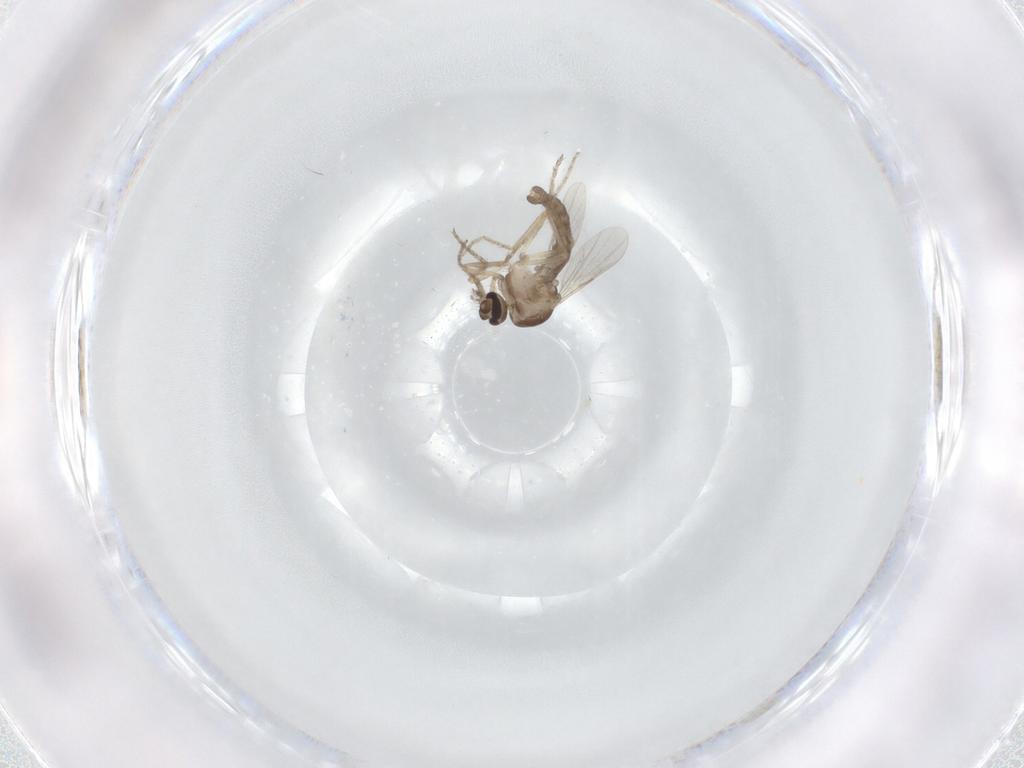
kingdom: Animalia
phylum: Arthropoda
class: Insecta
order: Diptera
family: Ceratopogonidae
